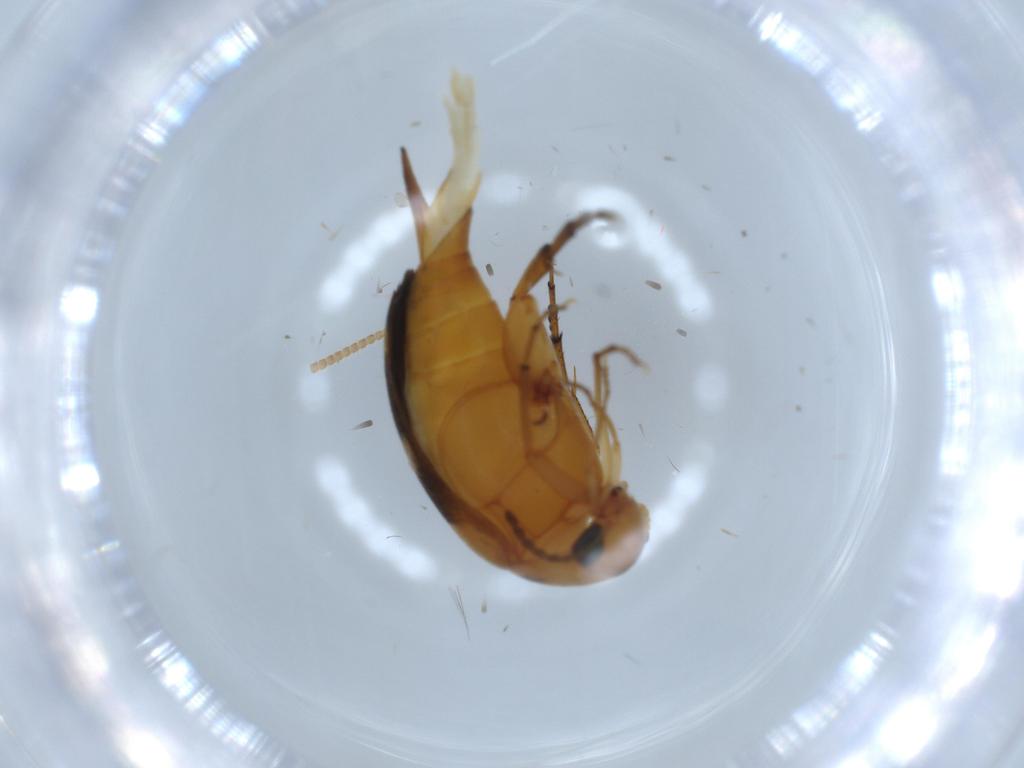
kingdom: Animalia
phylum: Arthropoda
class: Insecta
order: Coleoptera
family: Mordellidae
